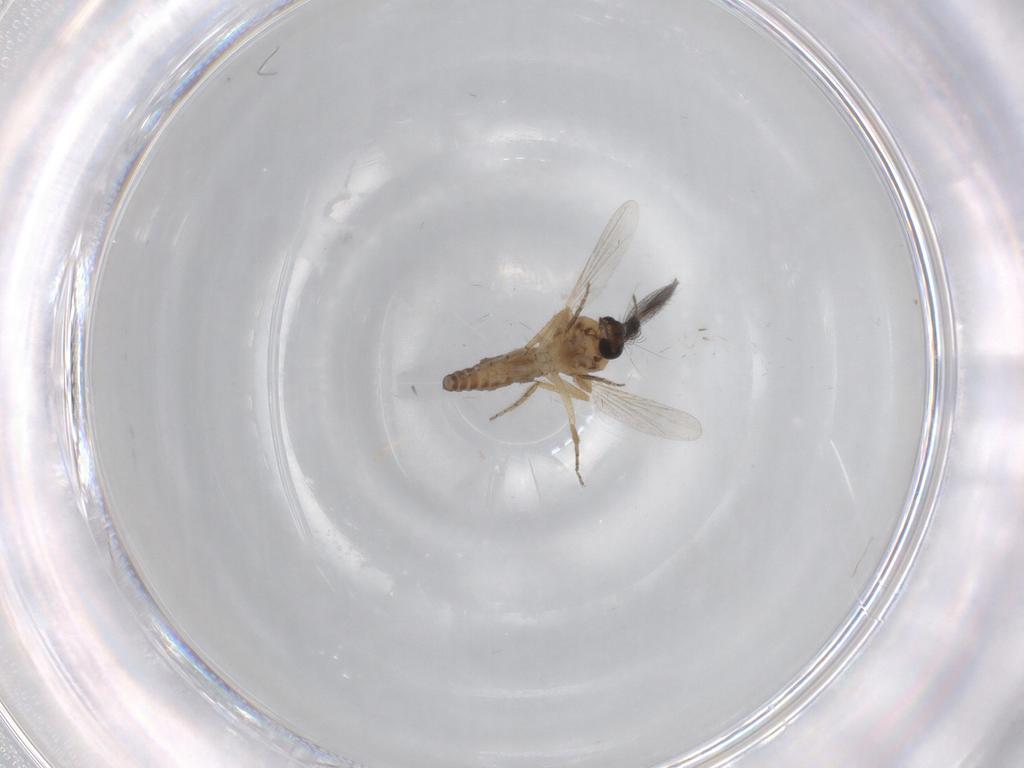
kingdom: Animalia
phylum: Arthropoda
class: Insecta
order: Diptera
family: Ceratopogonidae
